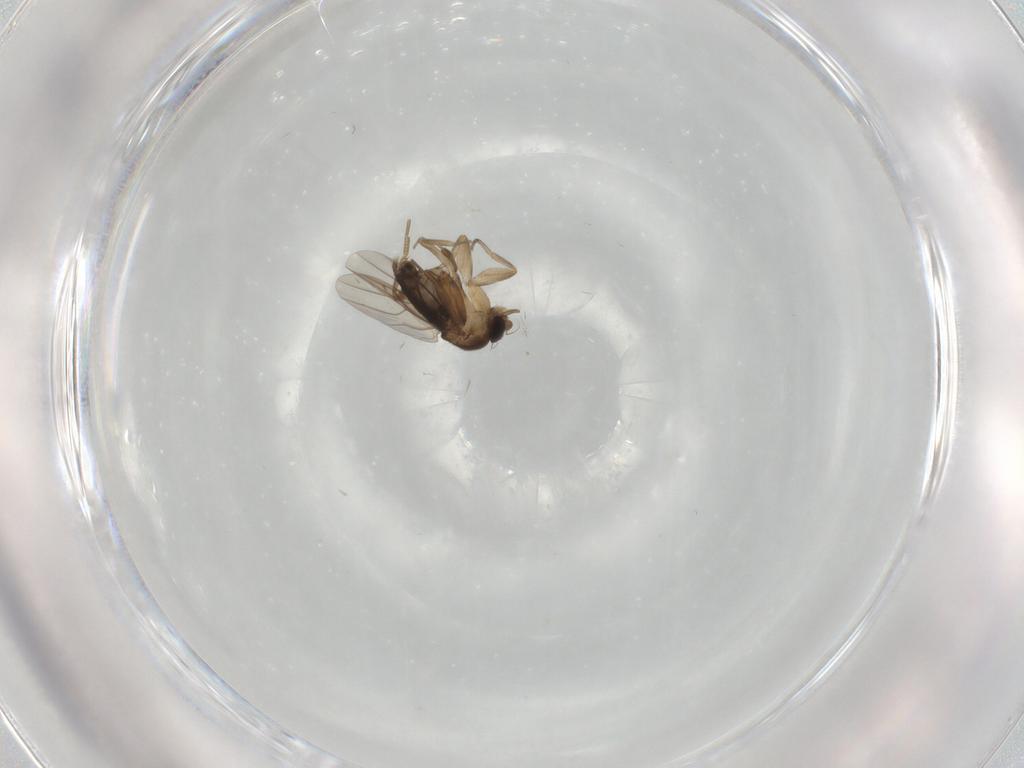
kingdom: Animalia
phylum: Arthropoda
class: Insecta
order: Diptera
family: Phoridae
